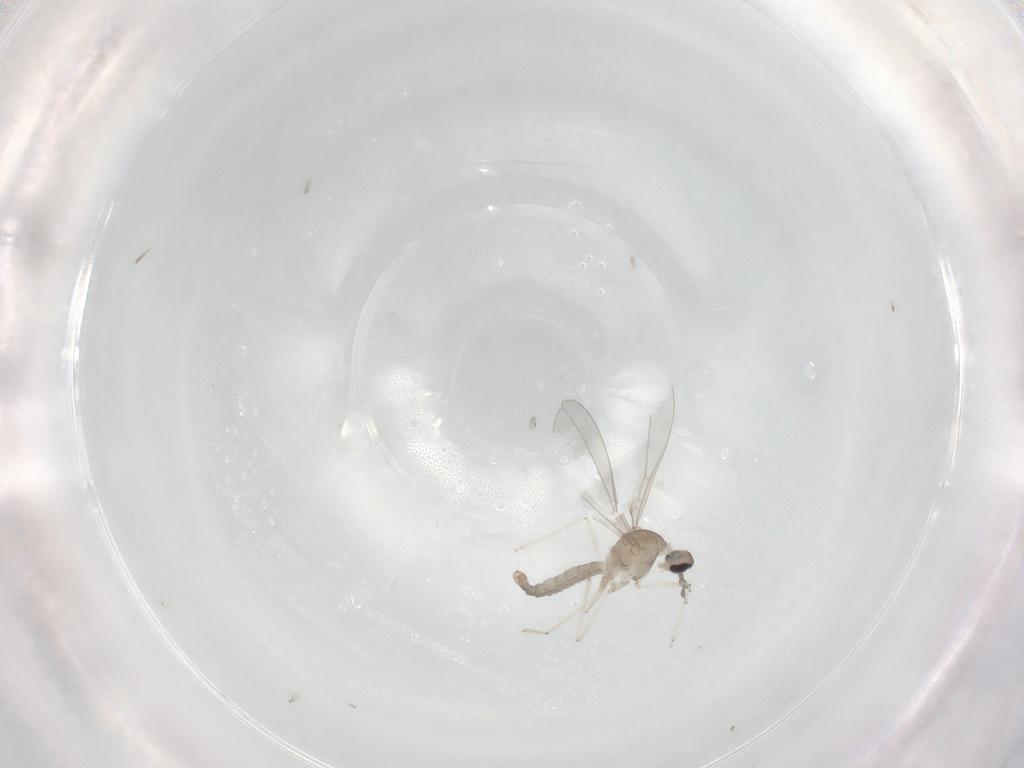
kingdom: Animalia
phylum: Arthropoda
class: Insecta
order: Diptera
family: Cecidomyiidae
